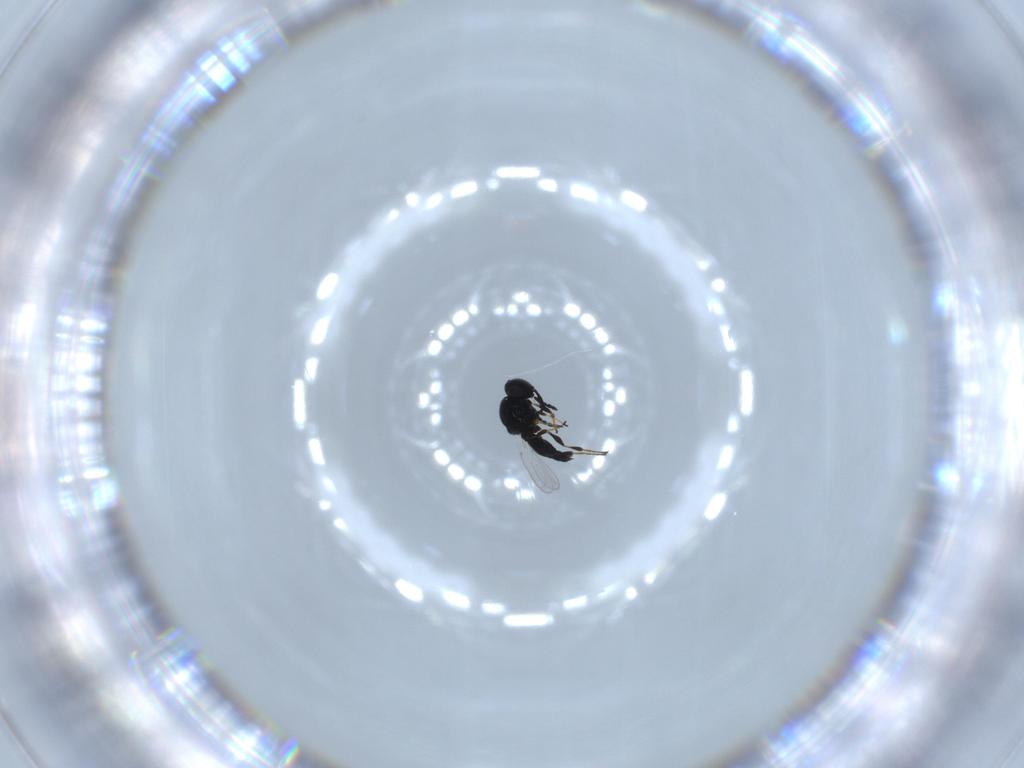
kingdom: Animalia
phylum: Arthropoda
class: Insecta
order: Hymenoptera
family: Platygastridae
